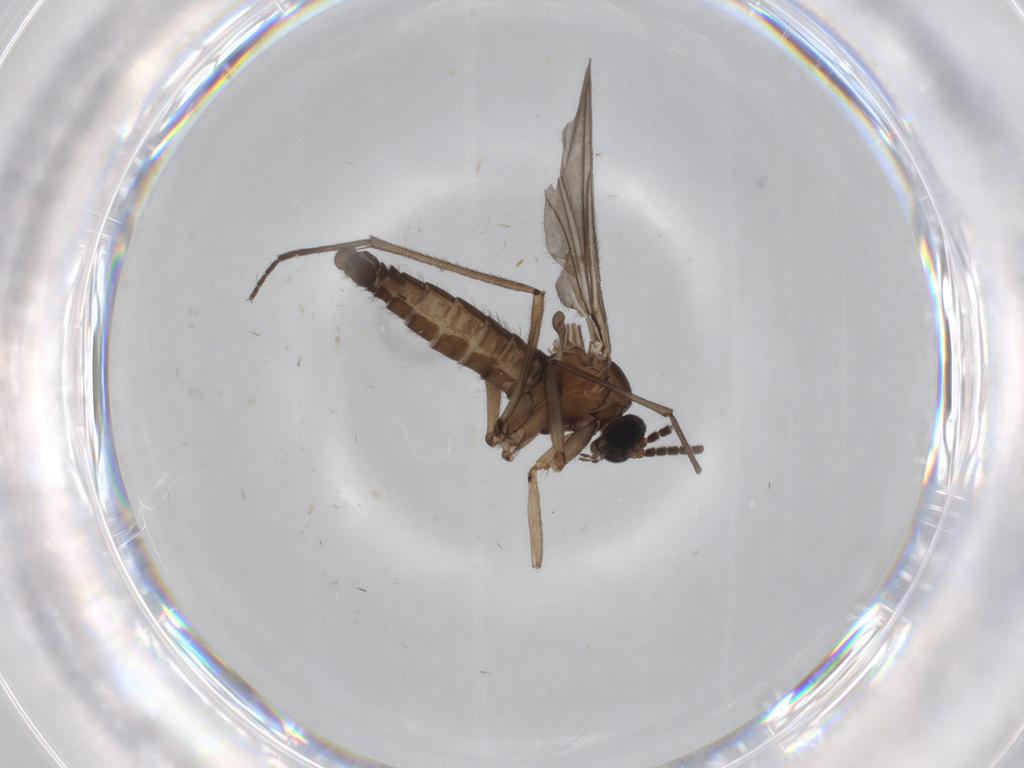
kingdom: Animalia
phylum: Arthropoda
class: Insecta
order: Diptera
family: Sciaridae
